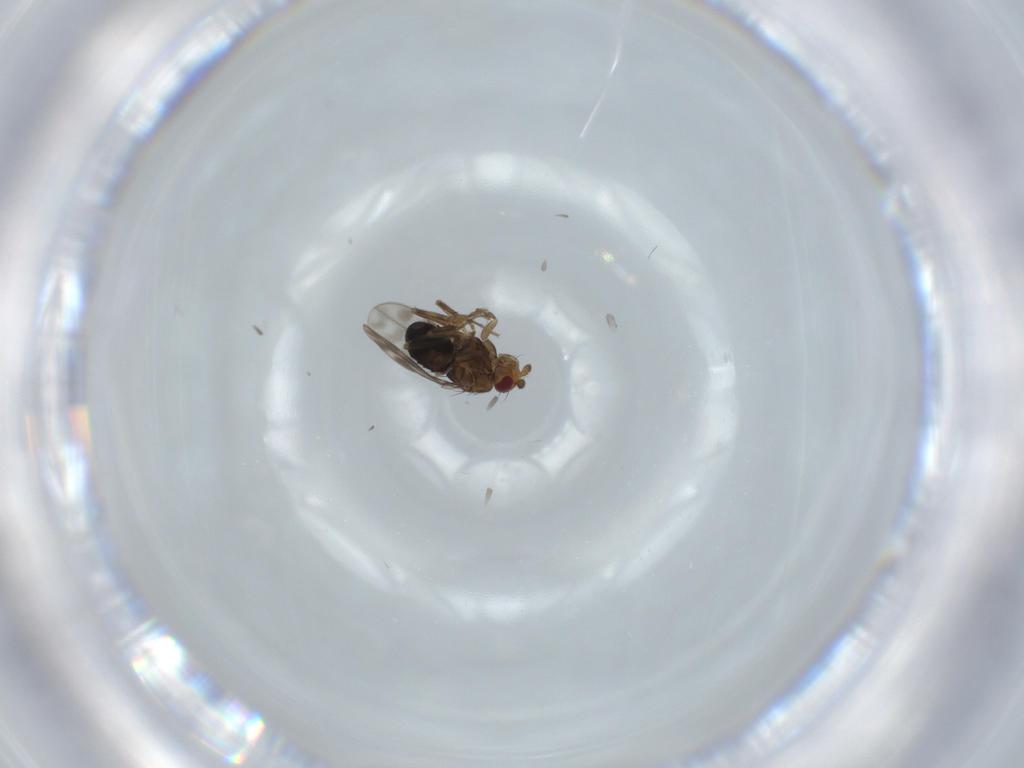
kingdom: Animalia
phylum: Arthropoda
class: Insecta
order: Diptera
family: Sphaeroceridae
